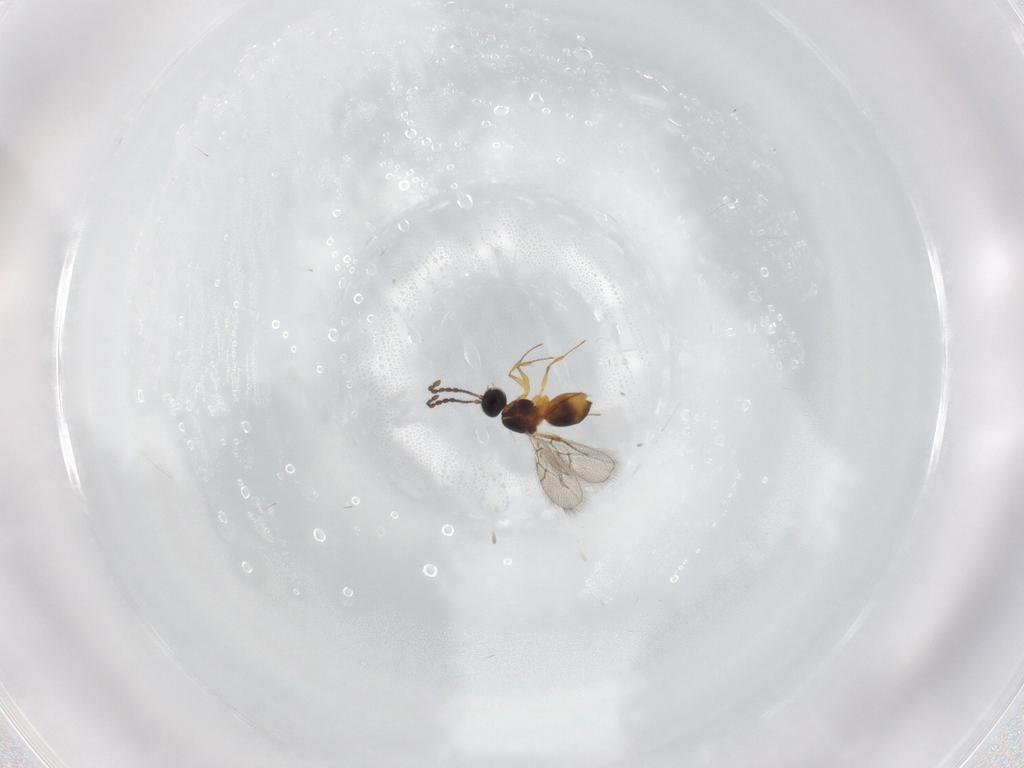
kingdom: Animalia
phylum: Arthropoda
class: Insecta
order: Hymenoptera
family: Figitidae
